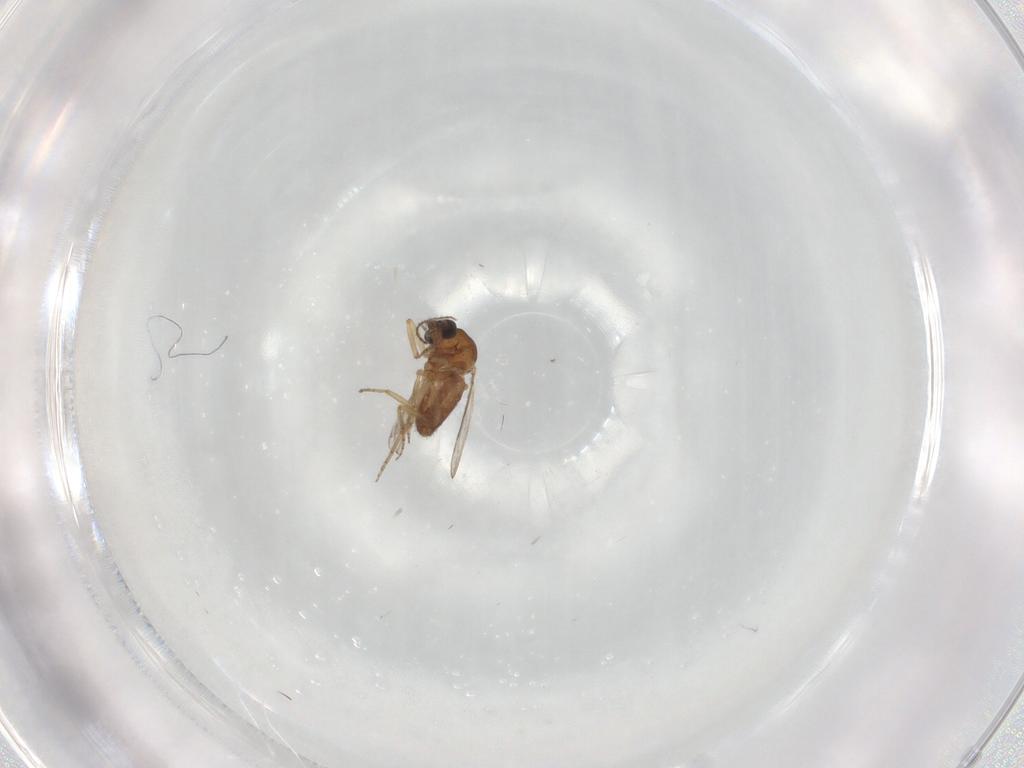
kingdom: Animalia
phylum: Arthropoda
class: Insecta
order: Diptera
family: Ceratopogonidae
